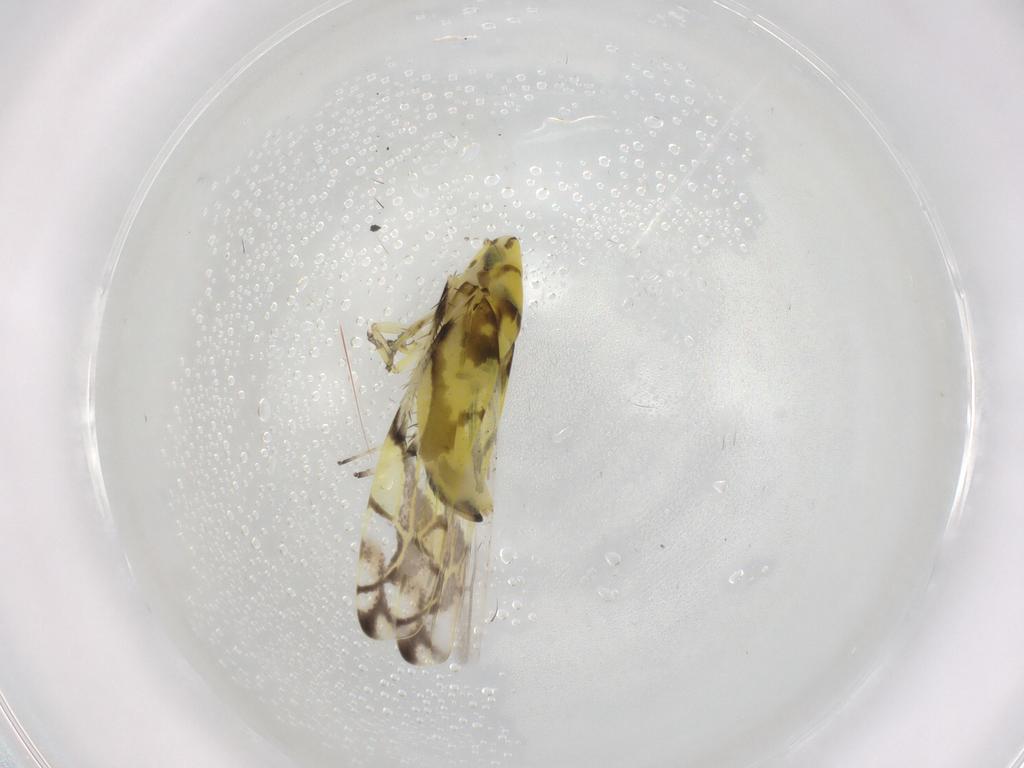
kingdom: Animalia
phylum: Arthropoda
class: Insecta
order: Hemiptera
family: Cicadellidae
